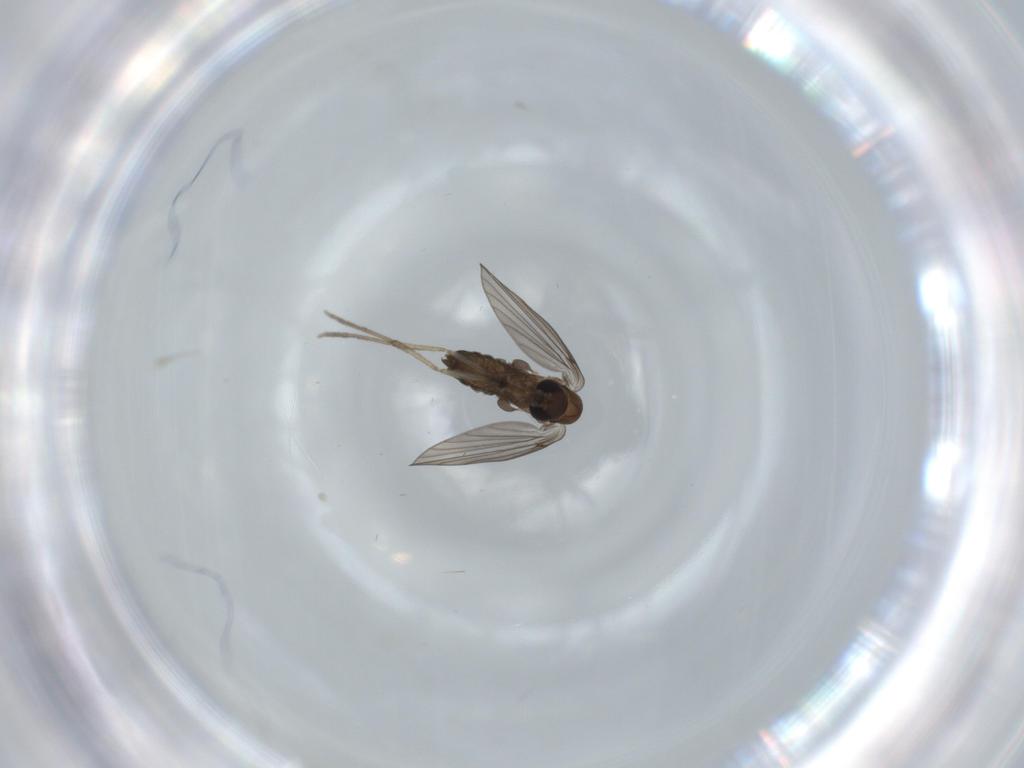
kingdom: Animalia
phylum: Arthropoda
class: Insecta
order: Diptera
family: Psychodidae
